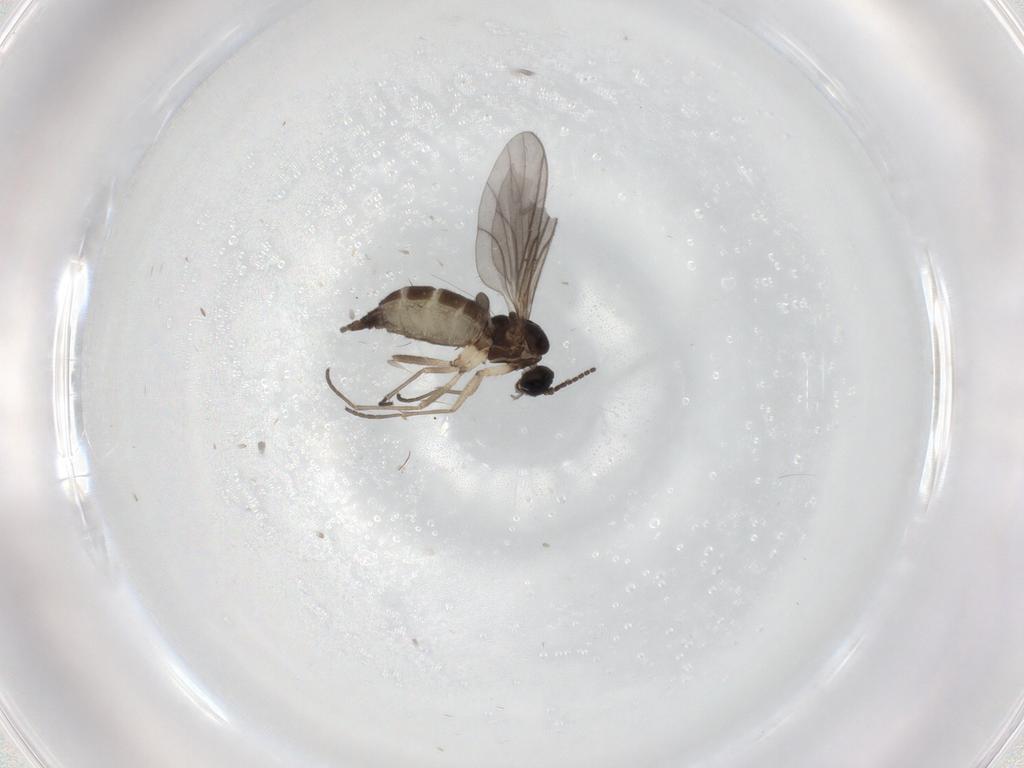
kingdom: Animalia
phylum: Arthropoda
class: Insecta
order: Diptera
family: Sciaridae
